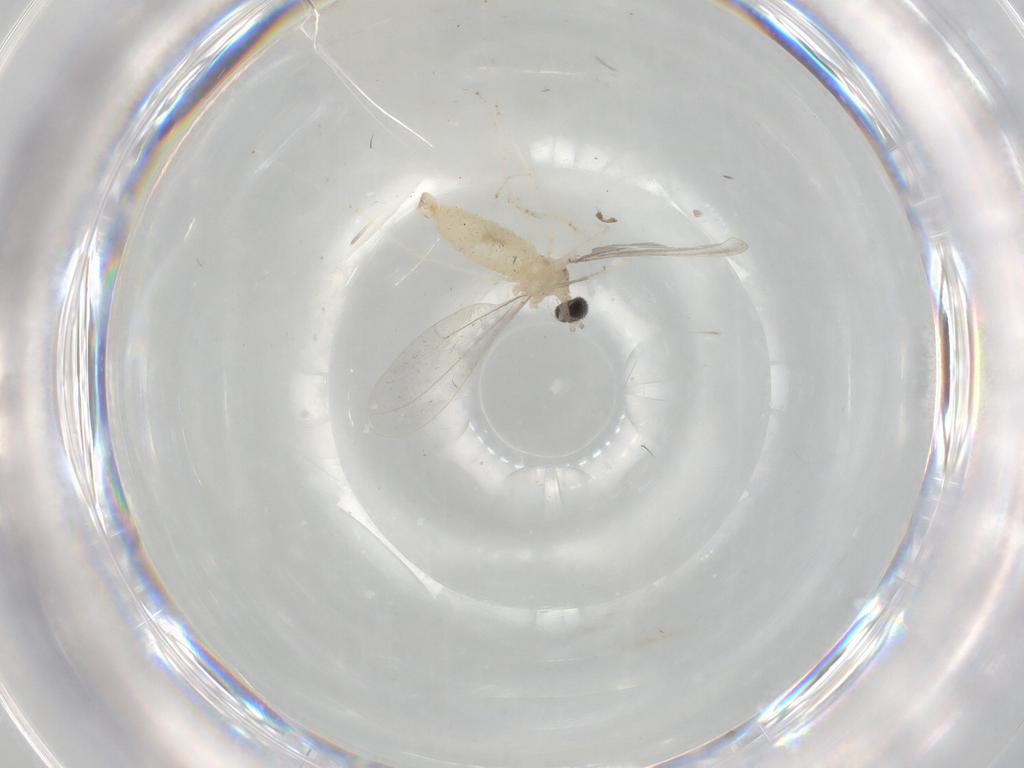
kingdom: Animalia
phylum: Arthropoda
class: Insecta
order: Diptera
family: Cecidomyiidae
